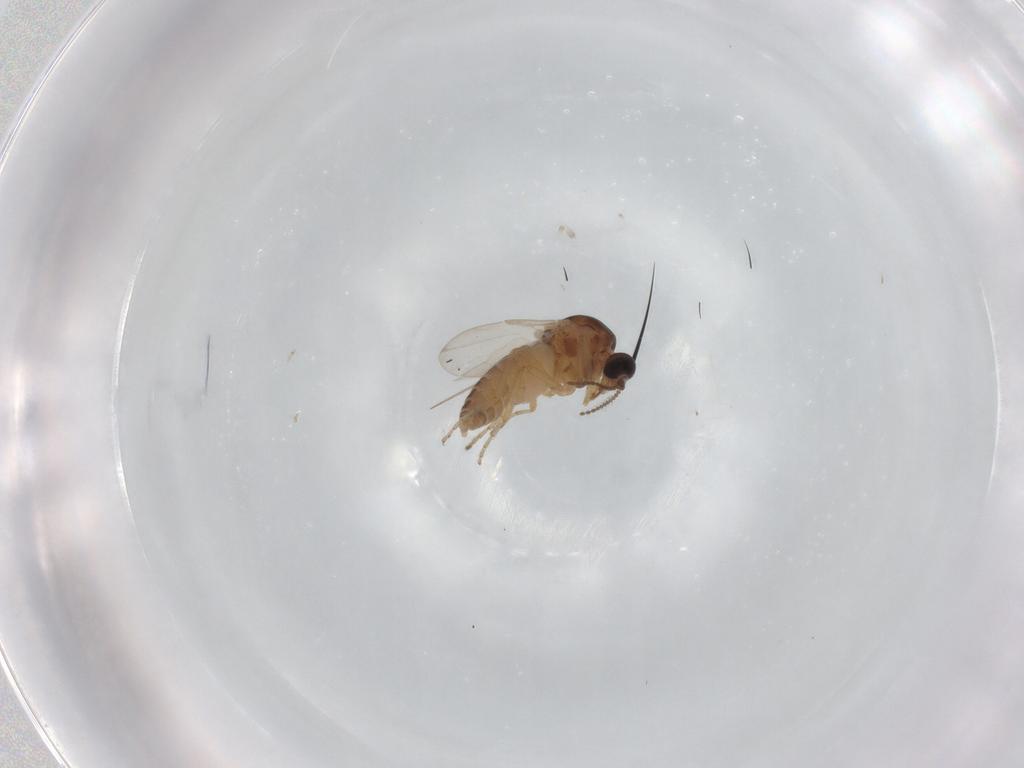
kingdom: Animalia
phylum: Arthropoda
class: Insecta
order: Diptera
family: Ceratopogonidae
